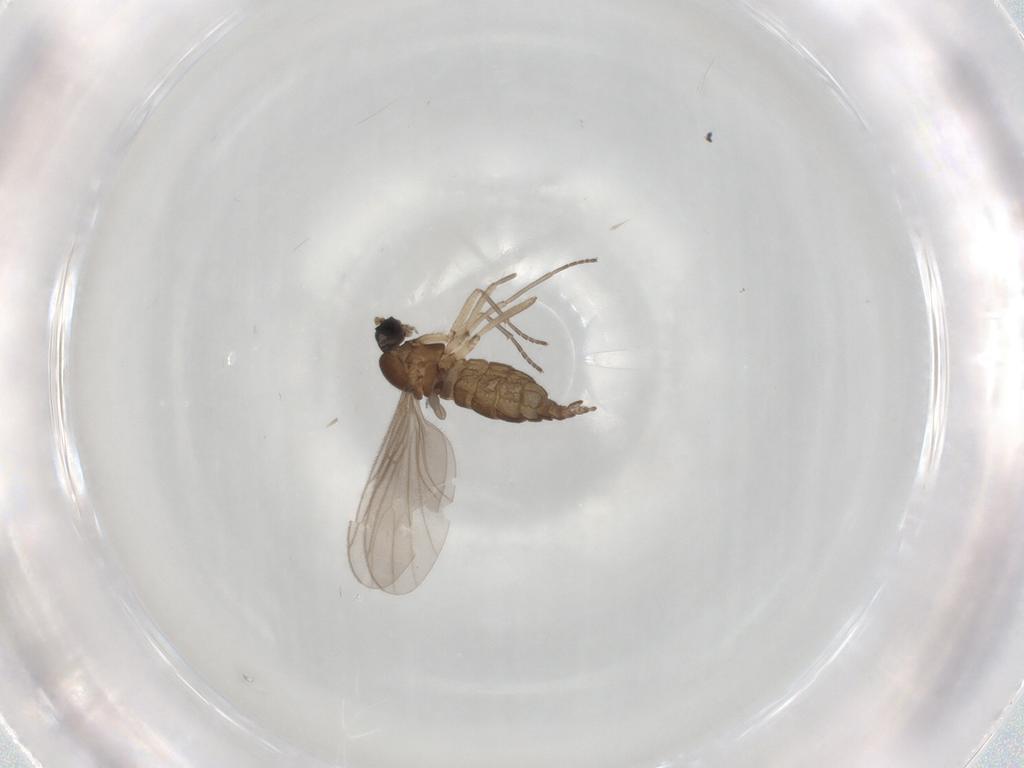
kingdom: Animalia
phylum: Arthropoda
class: Insecta
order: Diptera
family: Sciaridae
